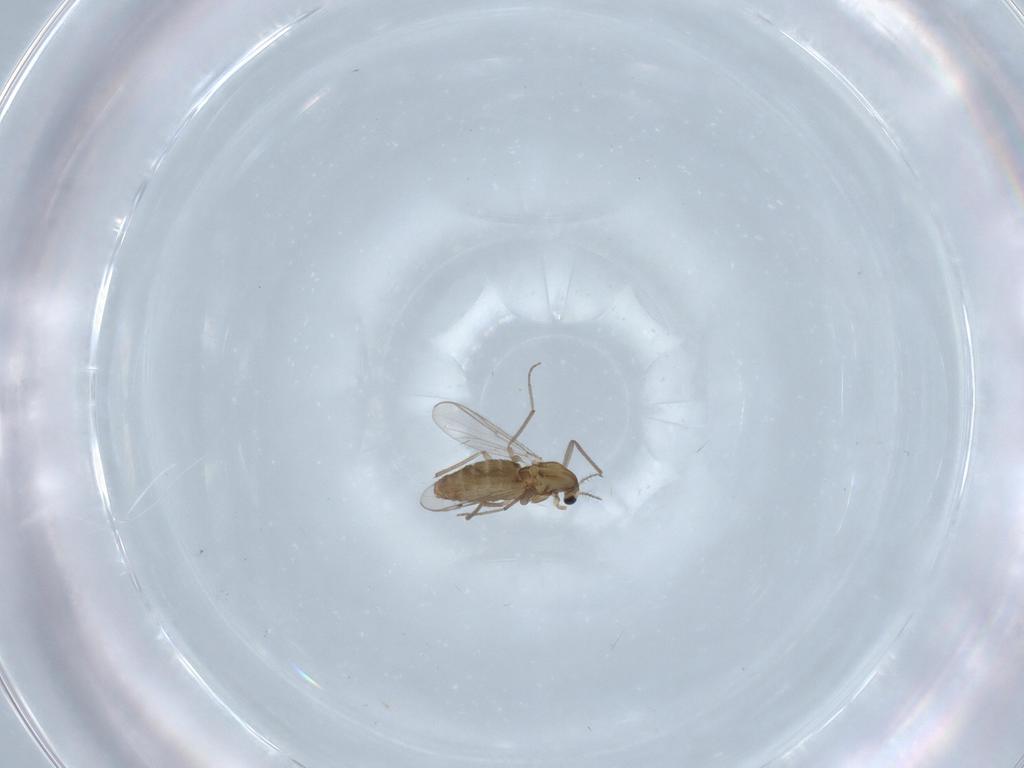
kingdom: Animalia
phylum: Arthropoda
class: Insecta
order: Diptera
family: Chironomidae
